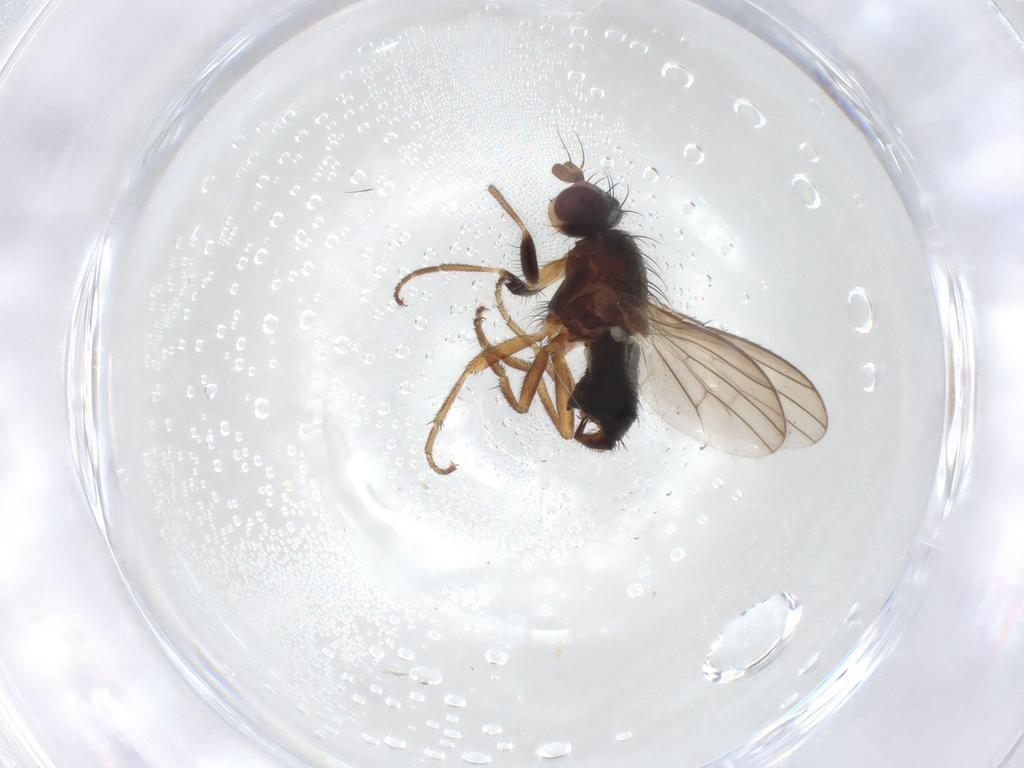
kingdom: Animalia
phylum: Arthropoda
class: Insecta
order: Diptera
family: Heleomyzidae
